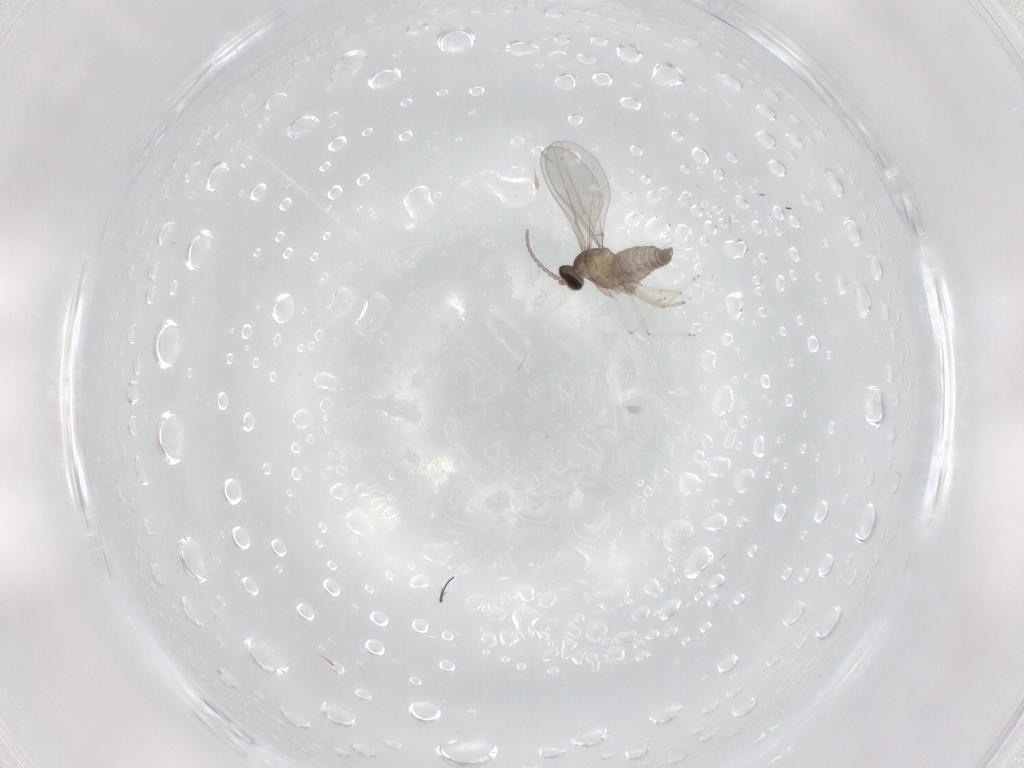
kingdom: Animalia
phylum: Arthropoda
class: Insecta
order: Diptera
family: Cecidomyiidae
